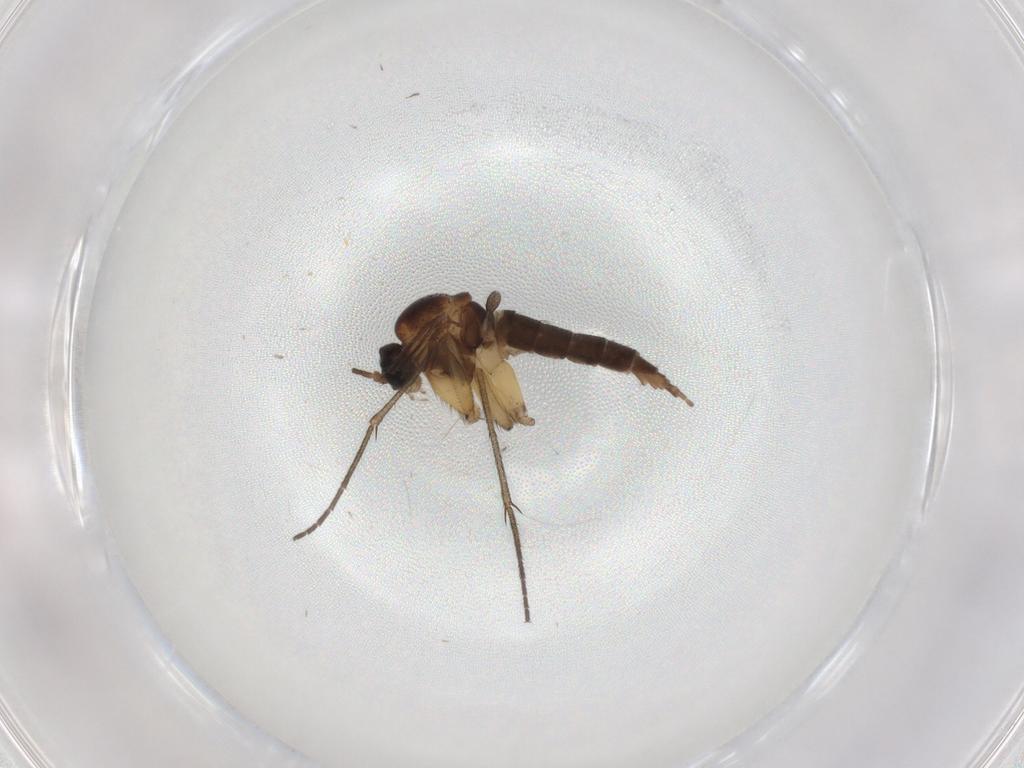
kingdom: Animalia
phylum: Arthropoda
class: Insecta
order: Diptera
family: Sciaridae
